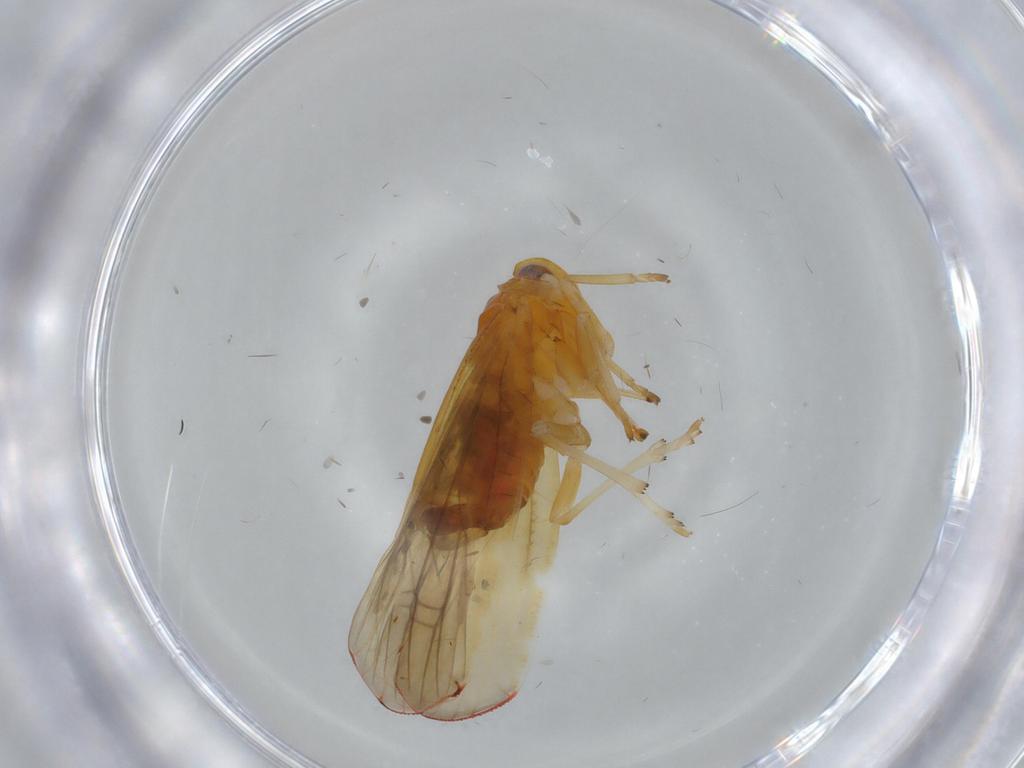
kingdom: Animalia
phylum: Arthropoda
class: Insecta
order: Hemiptera
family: Derbidae
